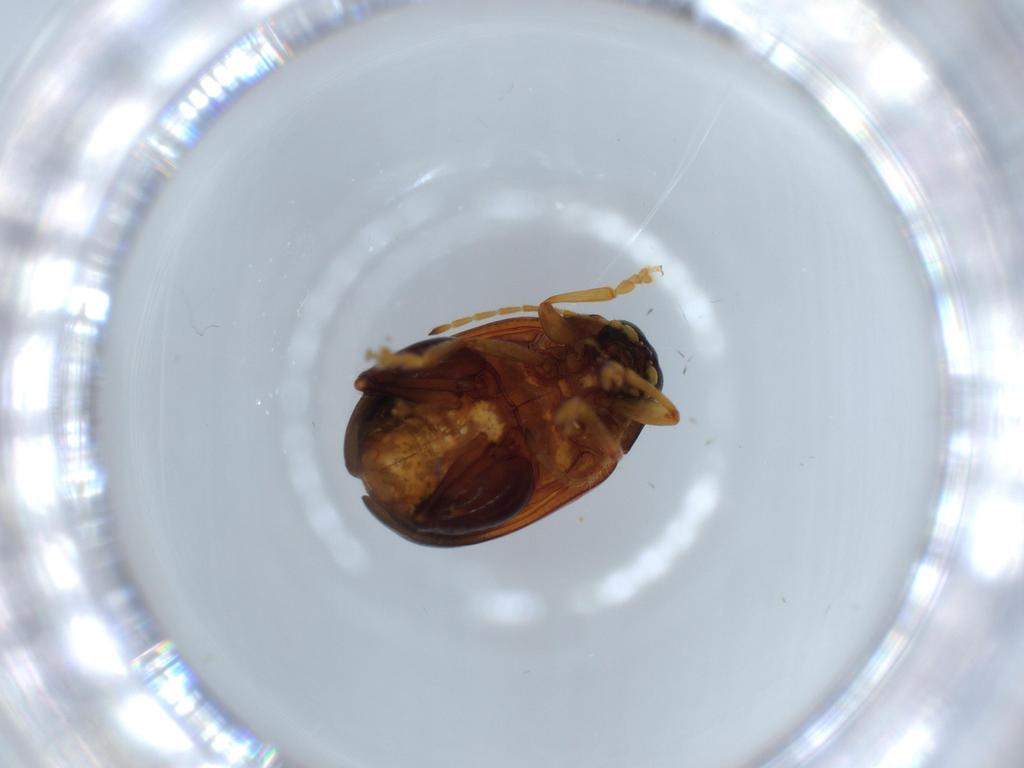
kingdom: Animalia
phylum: Arthropoda
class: Insecta
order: Coleoptera
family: Chrysomelidae
